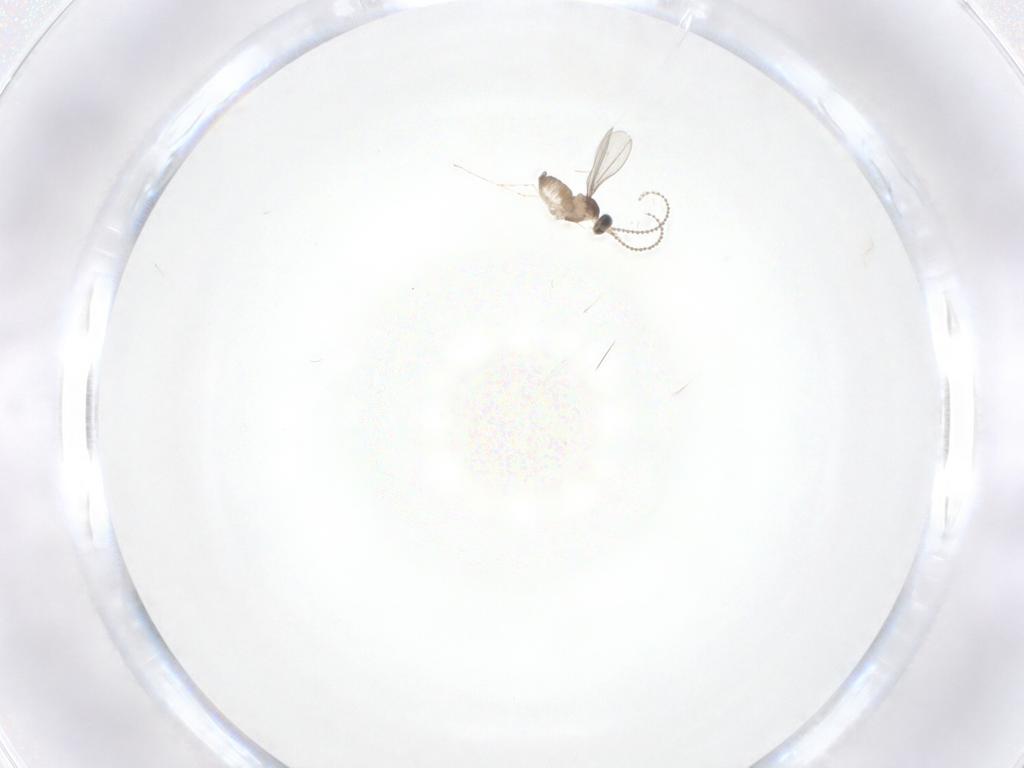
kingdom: Animalia
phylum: Arthropoda
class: Insecta
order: Diptera
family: Cecidomyiidae
